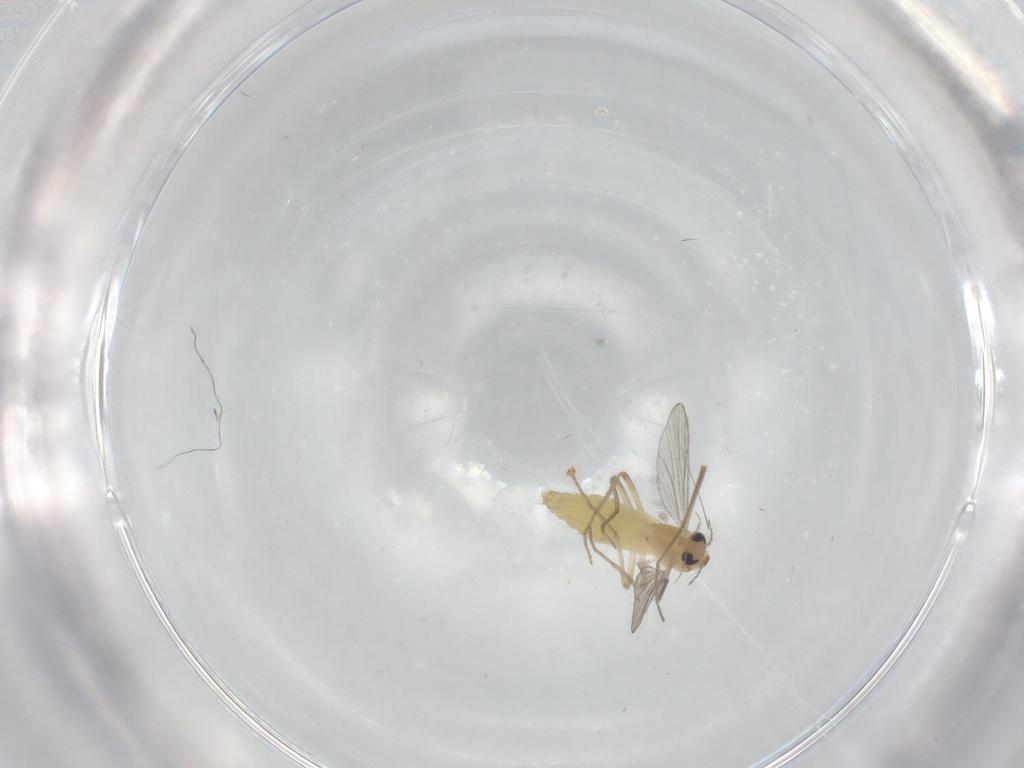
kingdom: Animalia
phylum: Arthropoda
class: Insecta
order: Diptera
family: Chironomidae
